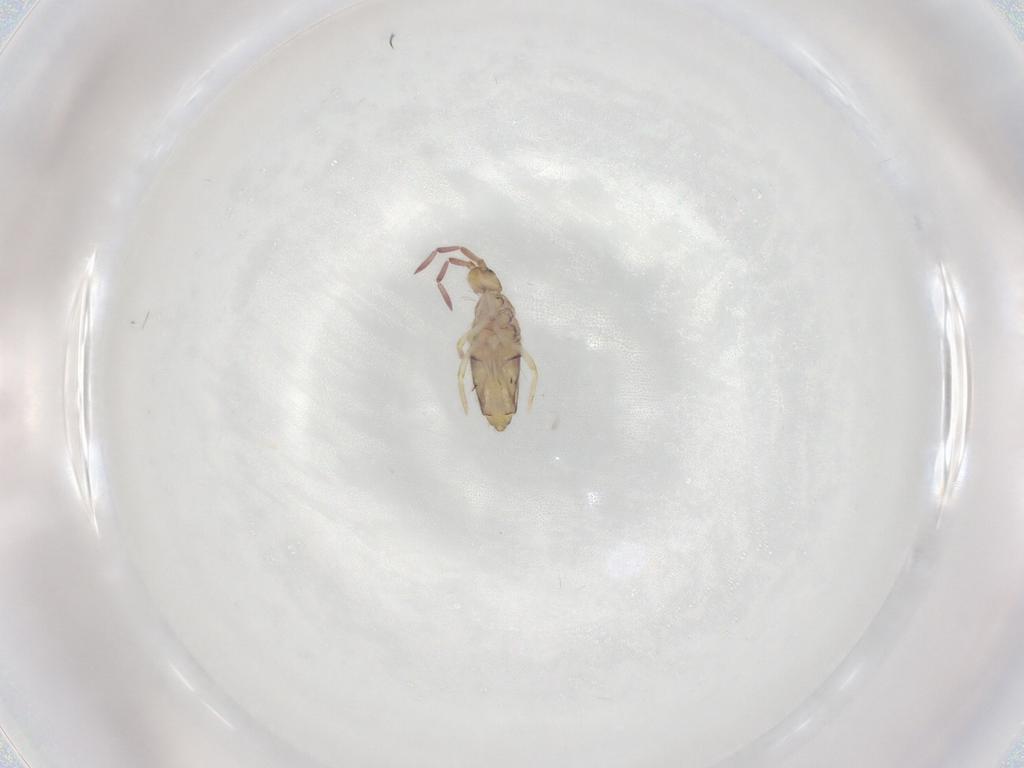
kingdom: Animalia
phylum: Arthropoda
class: Collembola
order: Entomobryomorpha
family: Entomobryidae
